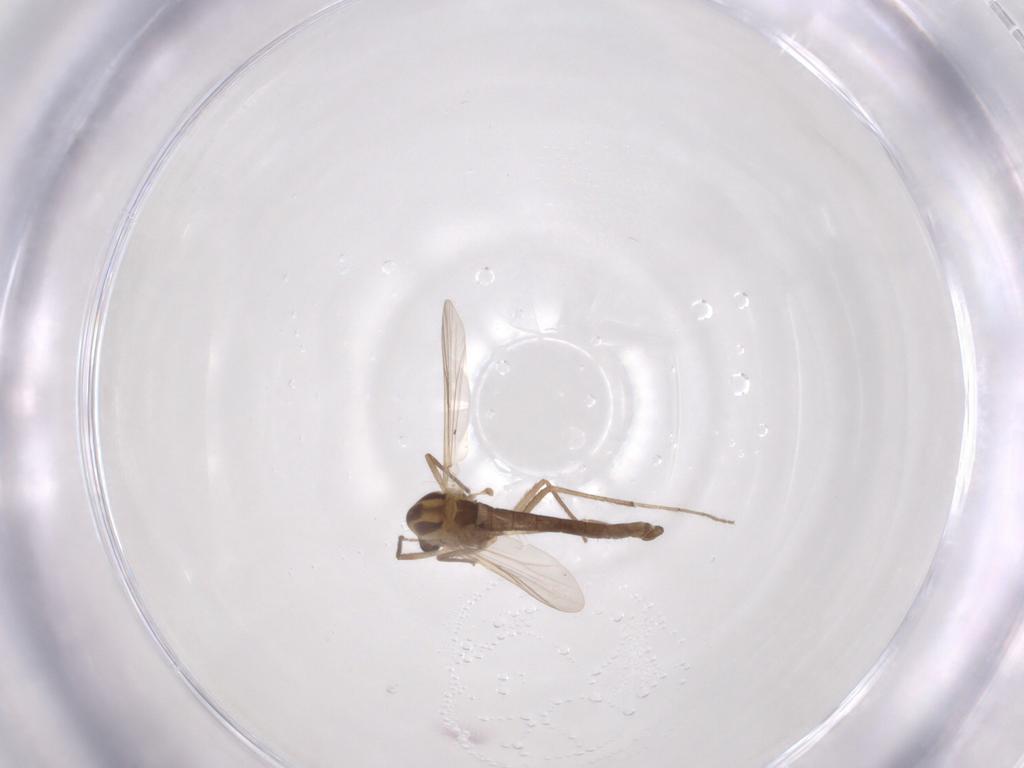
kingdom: Animalia
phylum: Arthropoda
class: Insecta
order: Diptera
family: Chironomidae
